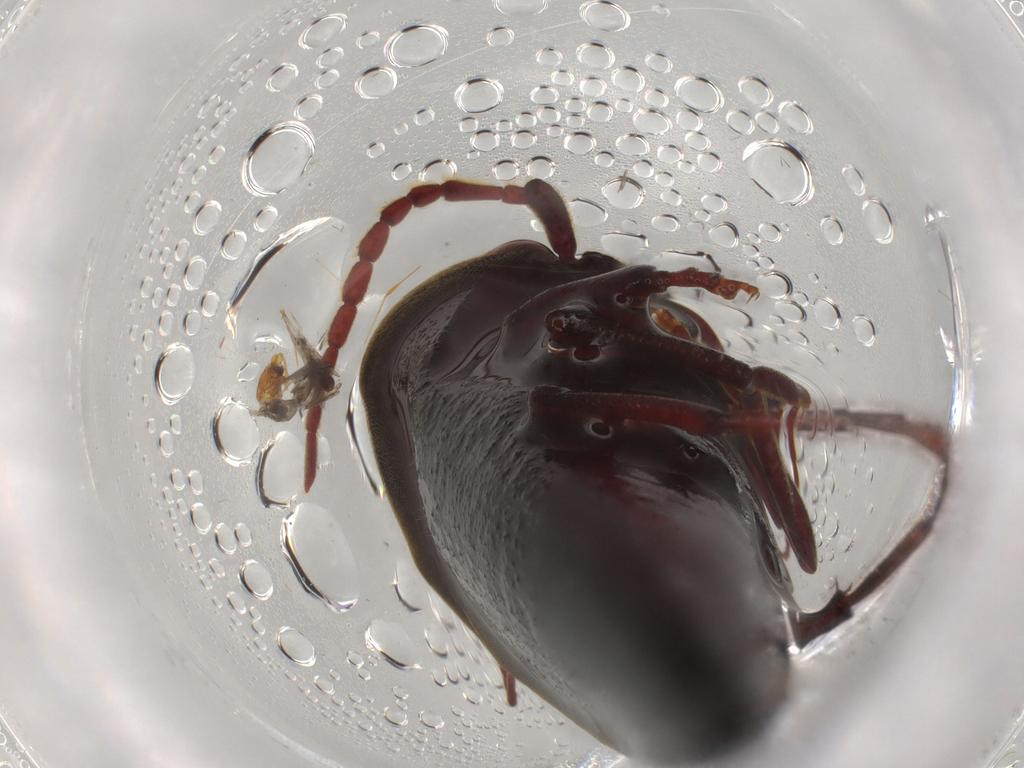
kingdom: Animalia
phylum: Arthropoda
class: Insecta
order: Coleoptera
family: Eucnemidae
